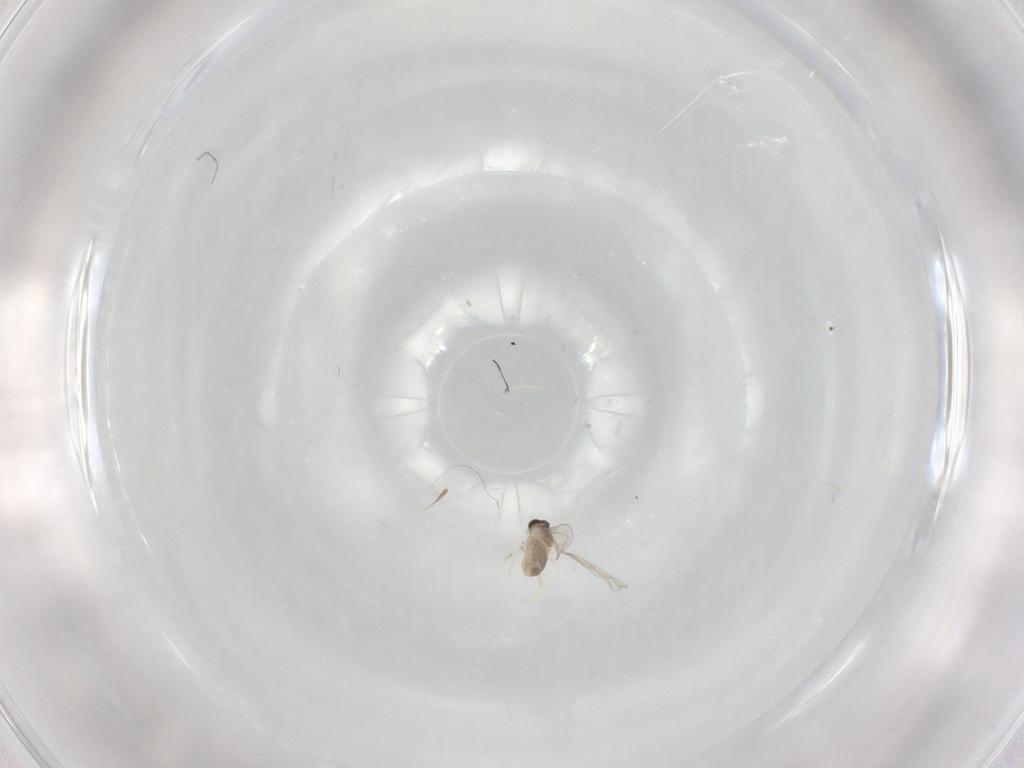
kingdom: Animalia
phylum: Arthropoda
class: Insecta
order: Diptera
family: Cecidomyiidae
